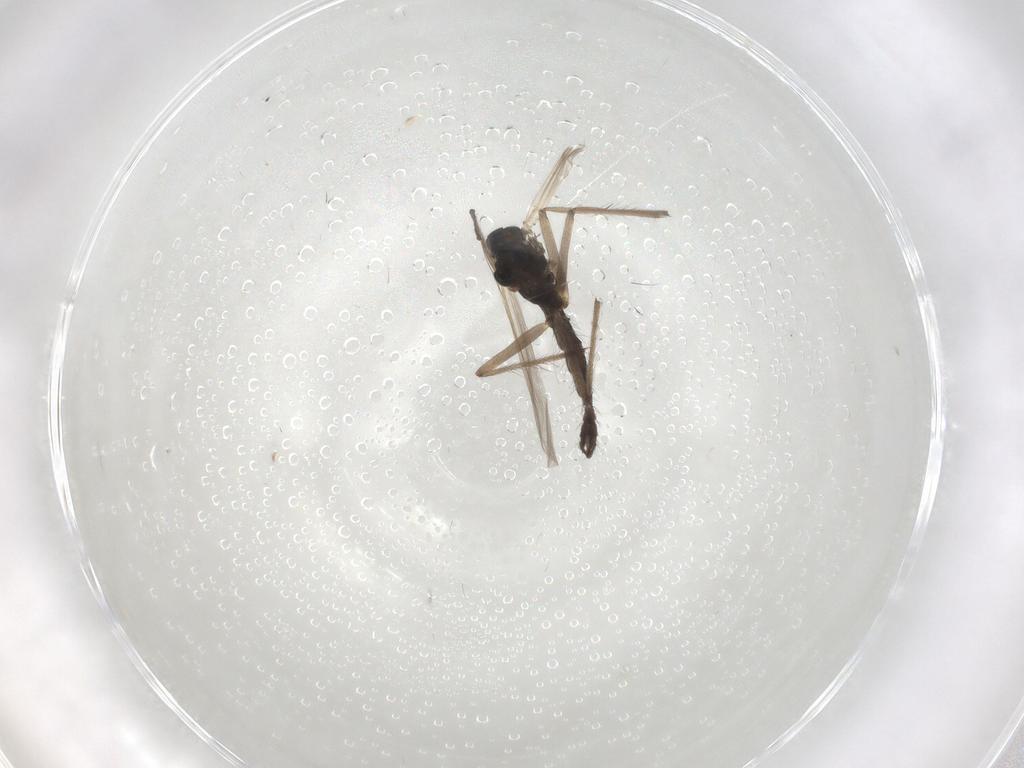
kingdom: Animalia
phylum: Arthropoda
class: Insecta
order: Diptera
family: Chironomidae
